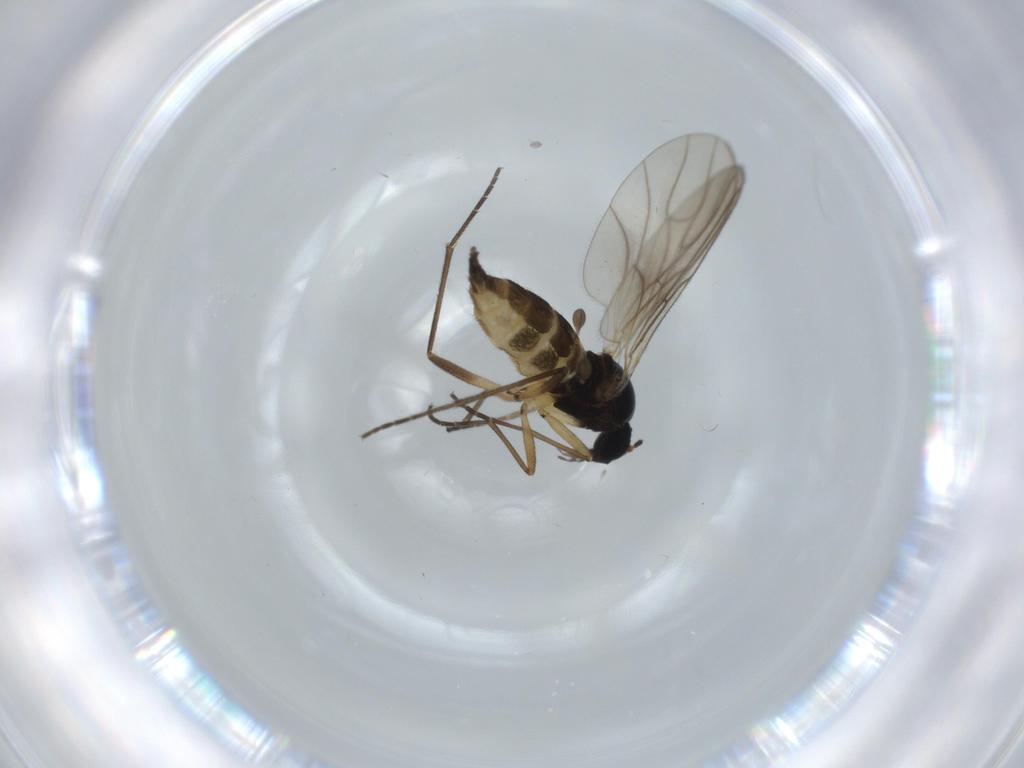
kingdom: Animalia
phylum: Arthropoda
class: Insecta
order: Diptera
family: Sciaridae
